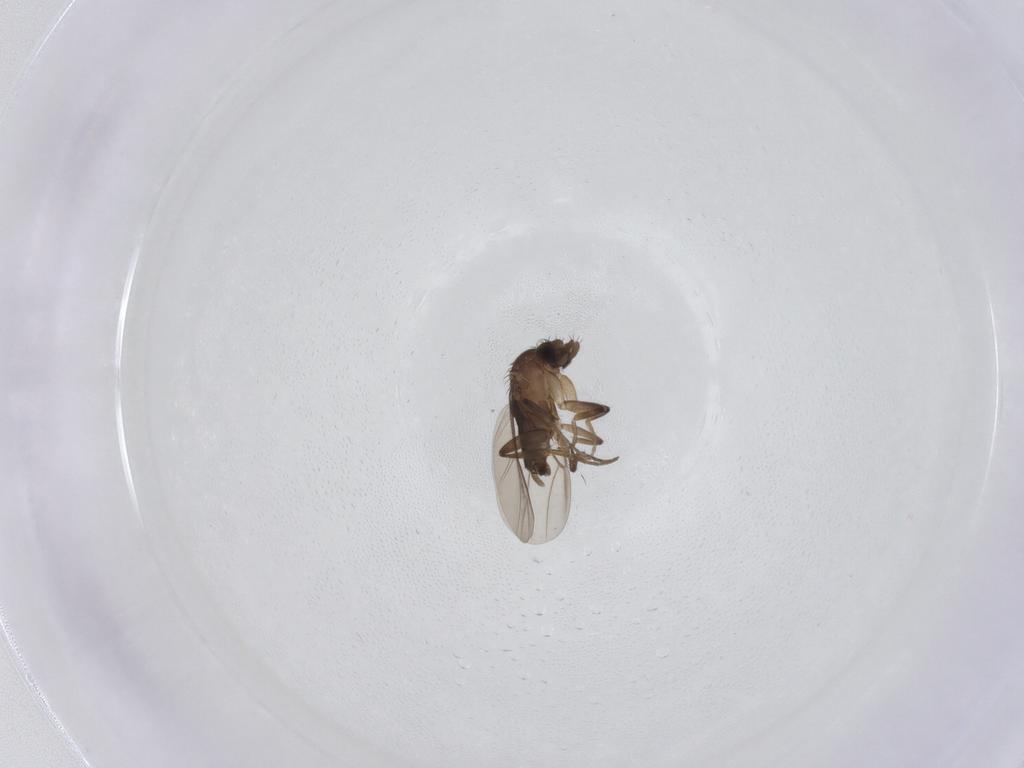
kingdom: Animalia
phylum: Arthropoda
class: Insecta
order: Diptera
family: Phoridae
